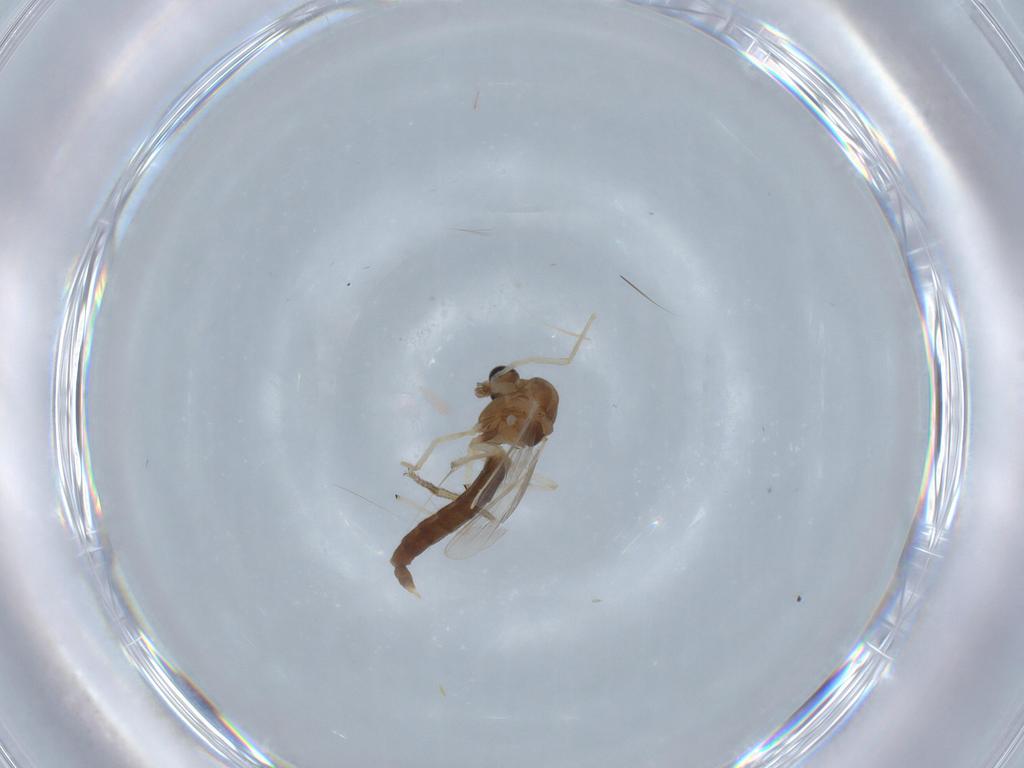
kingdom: Animalia
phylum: Arthropoda
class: Insecta
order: Diptera
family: Chironomidae
